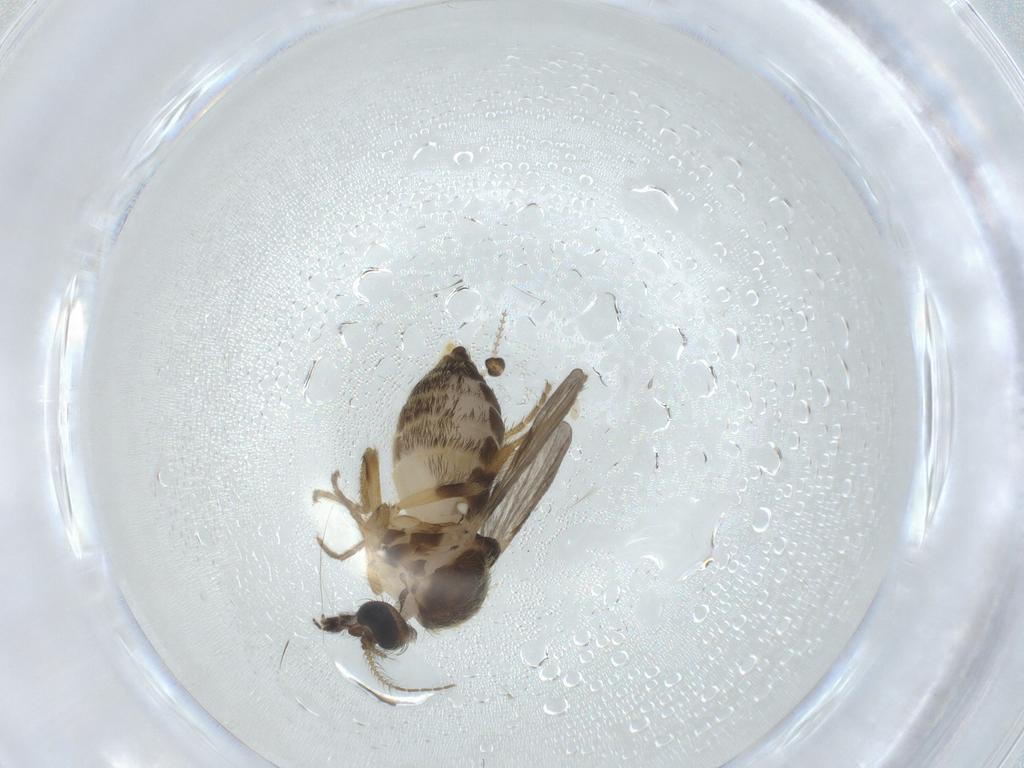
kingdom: Animalia
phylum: Arthropoda
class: Insecta
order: Diptera
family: Ceratopogonidae
